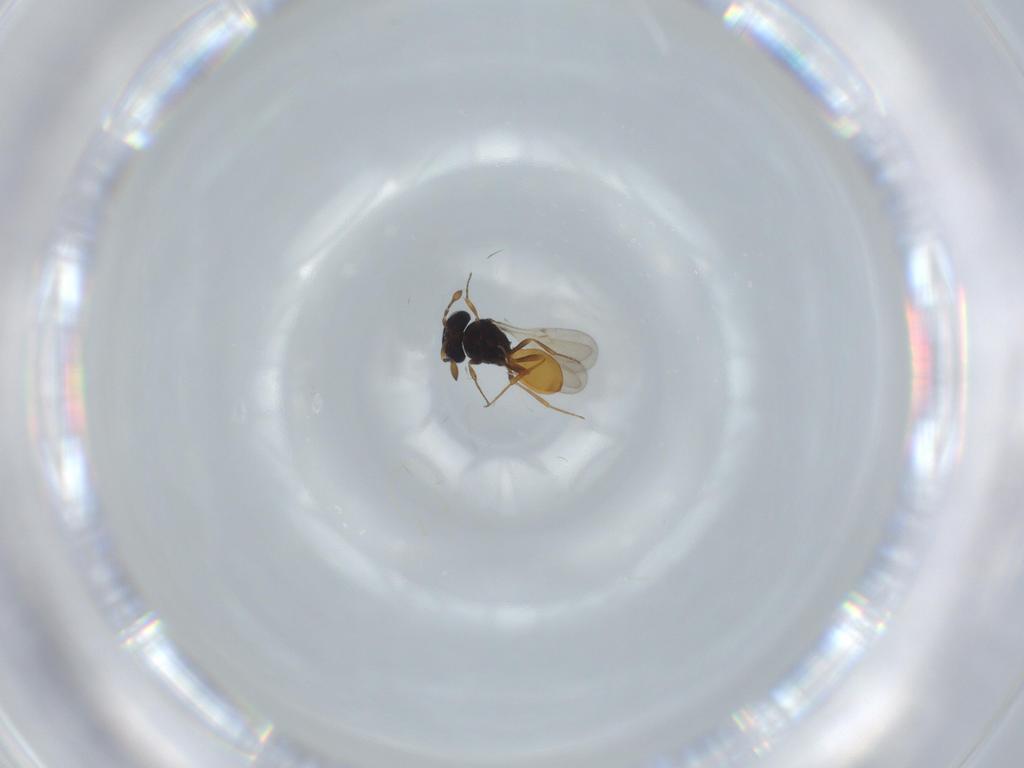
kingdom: Animalia
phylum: Arthropoda
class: Insecta
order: Hymenoptera
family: Scelionidae
